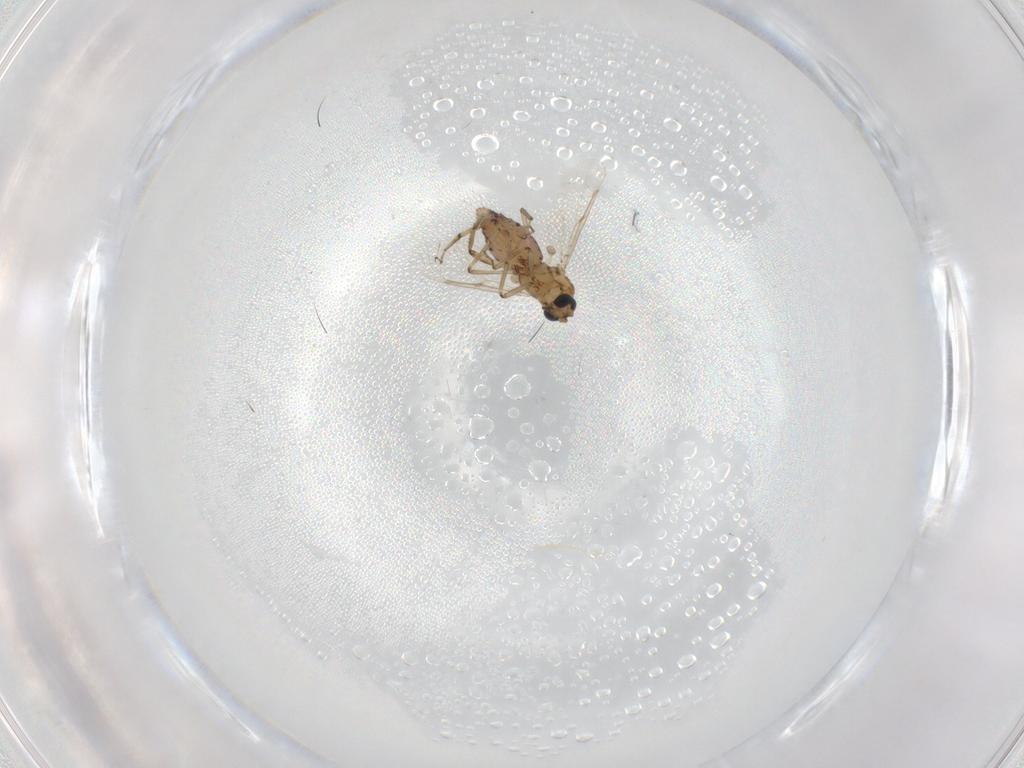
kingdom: Animalia
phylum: Arthropoda
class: Insecta
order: Diptera
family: Ceratopogonidae
